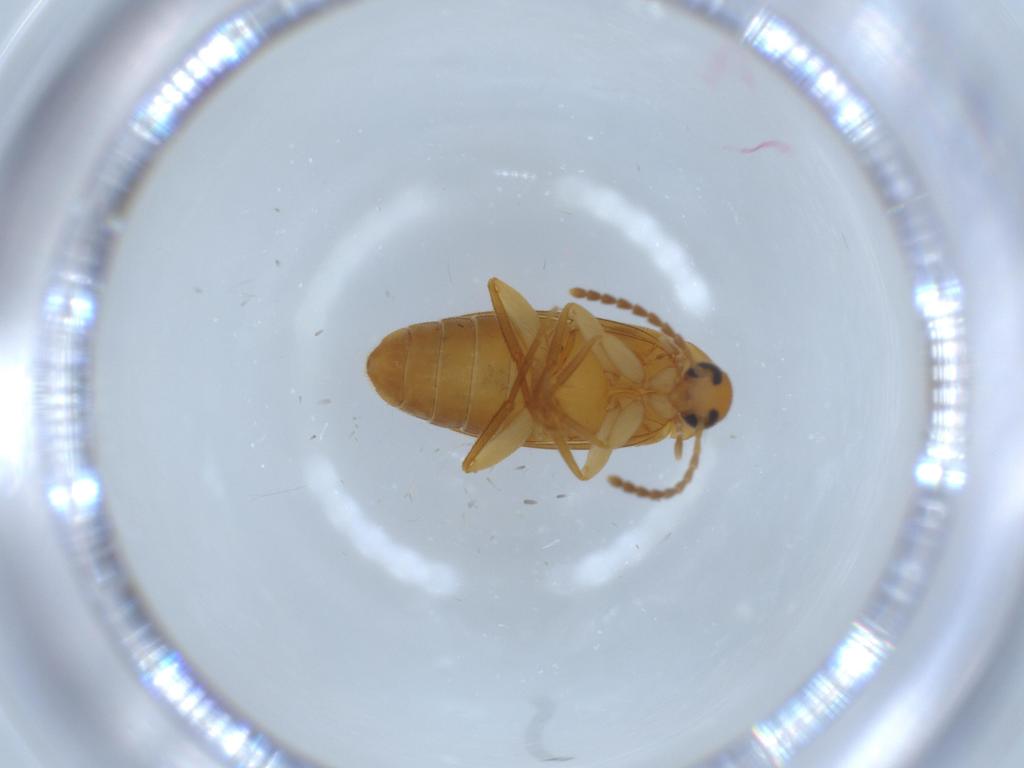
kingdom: Animalia
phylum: Arthropoda
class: Insecta
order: Coleoptera
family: Scraptiidae
